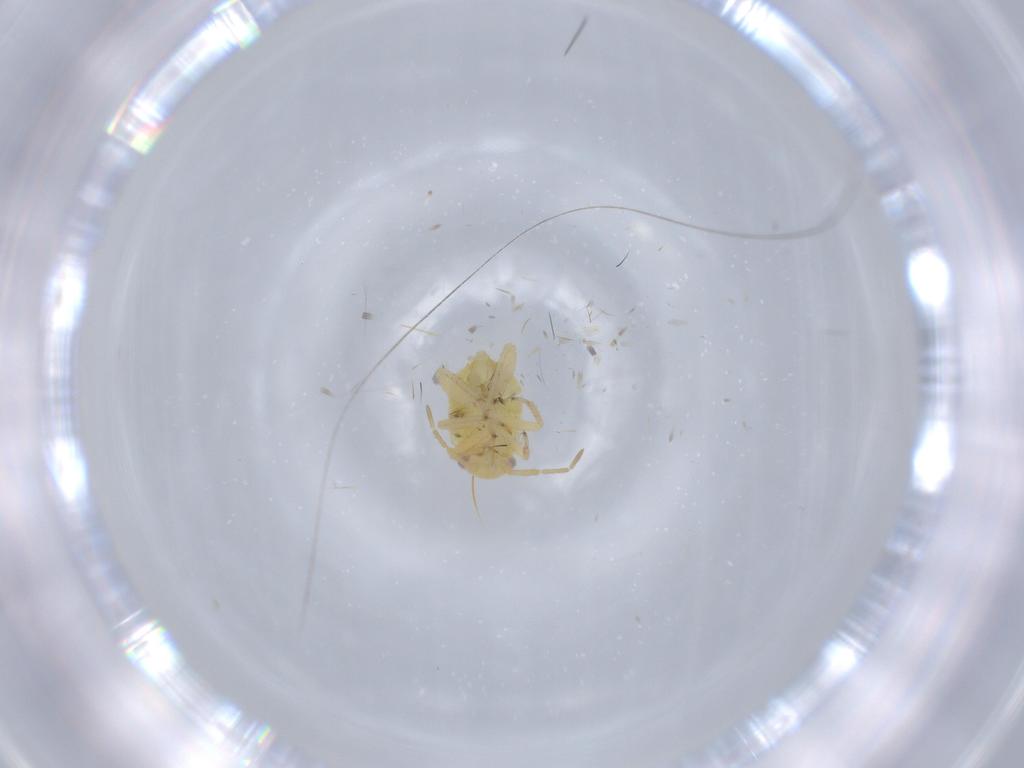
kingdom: Animalia
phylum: Arthropoda
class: Insecta
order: Hemiptera
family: Miridae
